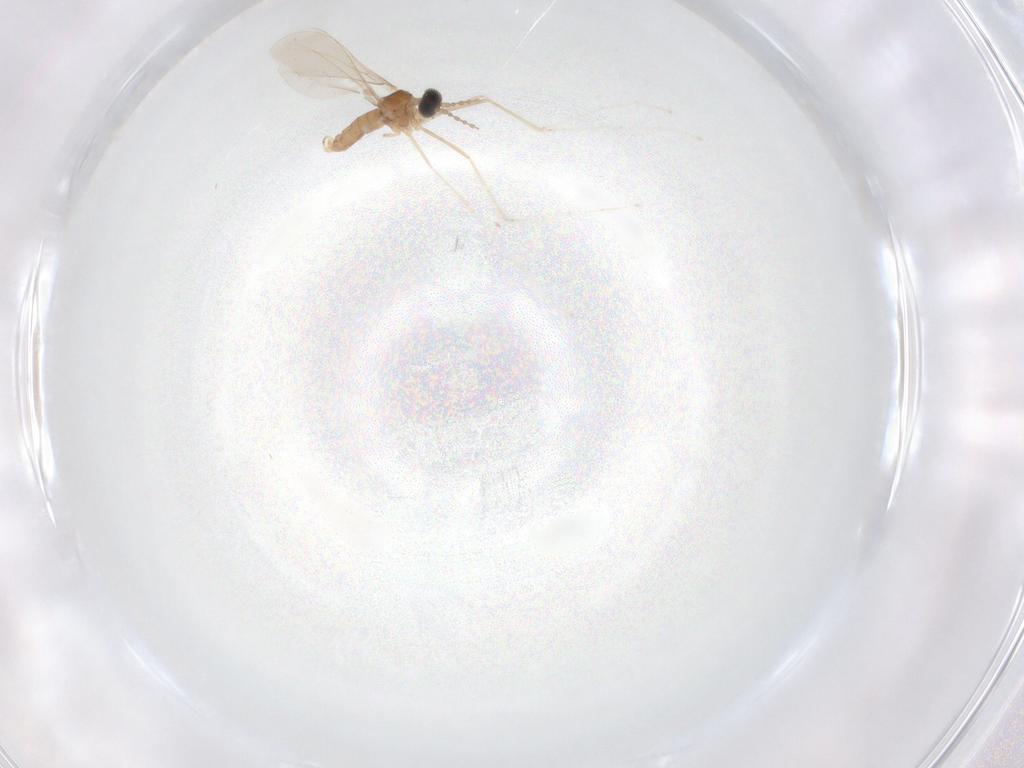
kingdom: Animalia
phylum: Arthropoda
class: Insecta
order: Diptera
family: Cecidomyiidae
